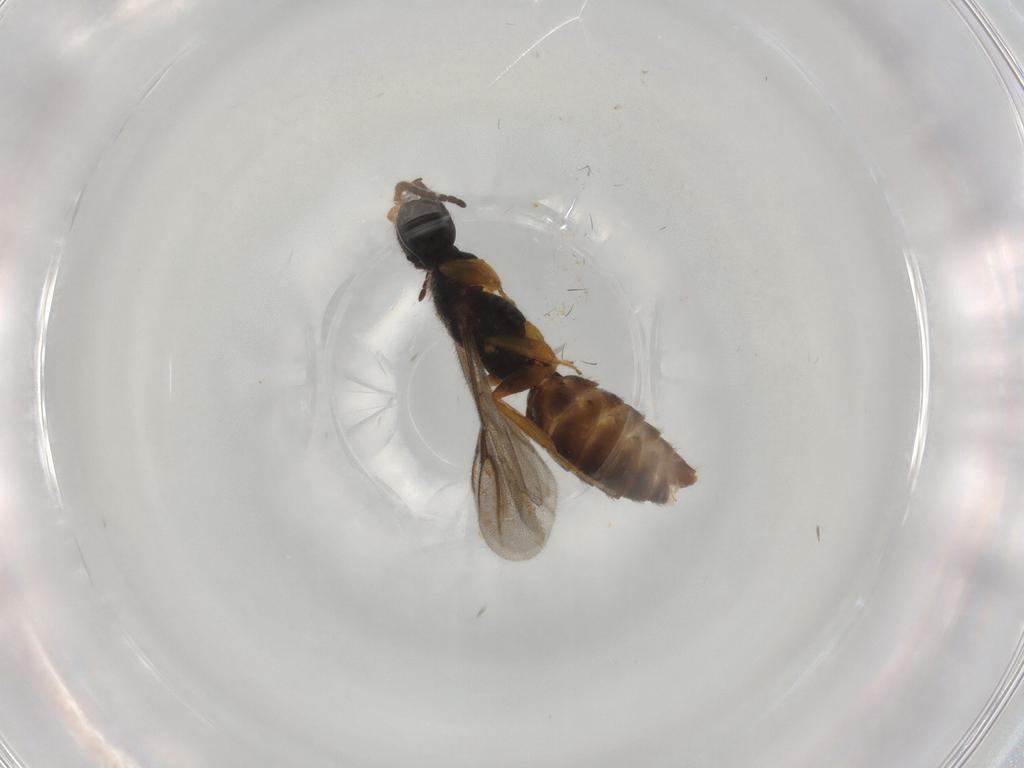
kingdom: Animalia
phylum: Arthropoda
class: Insecta
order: Hymenoptera
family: Bethylidae
